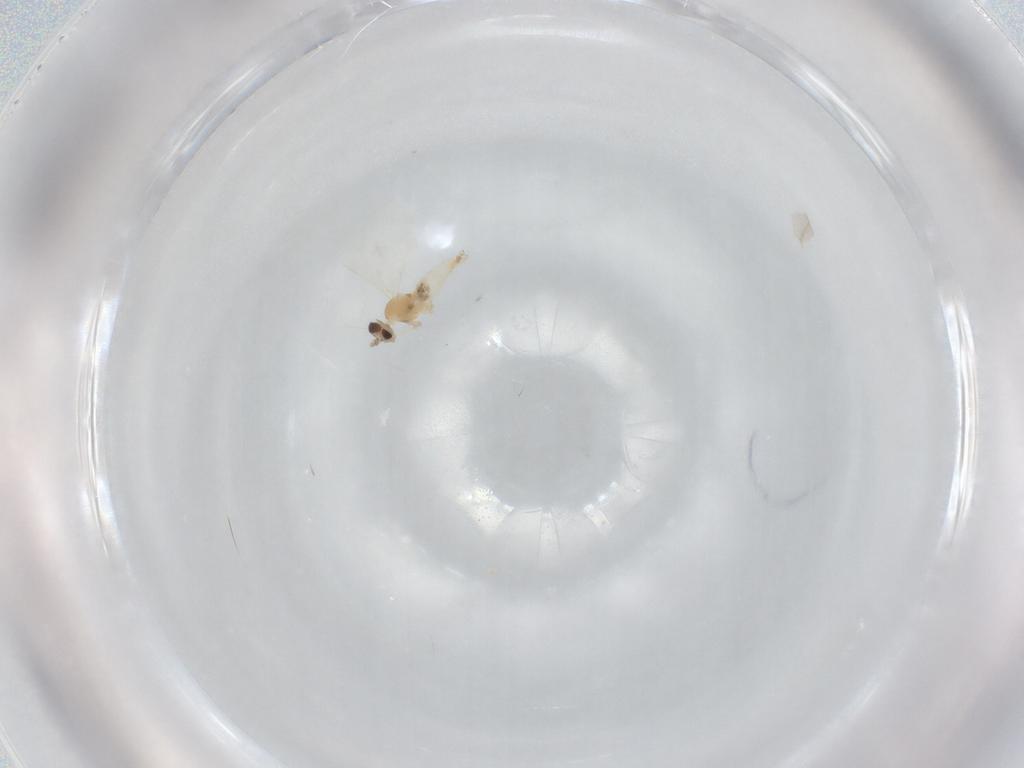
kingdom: Animalia
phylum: Arthropoda
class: Insecta
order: Diptera
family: Cecidomyiidae
